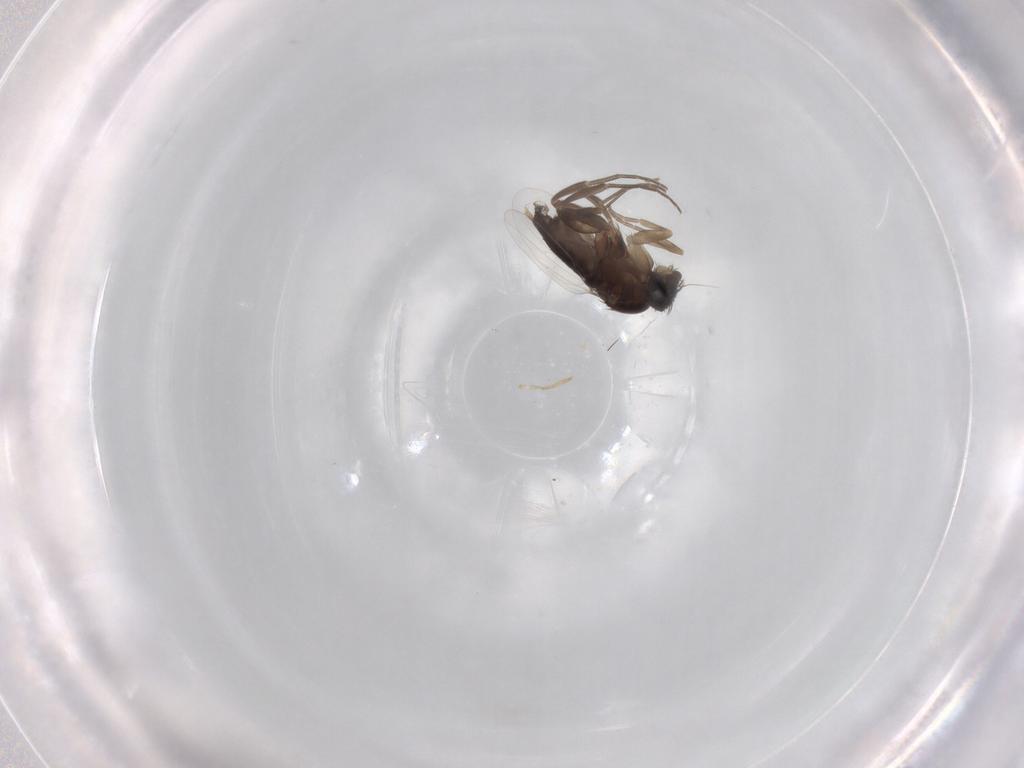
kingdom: Animalia
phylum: Arthropoda
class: Insecta
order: Diptera
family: Phoridae
